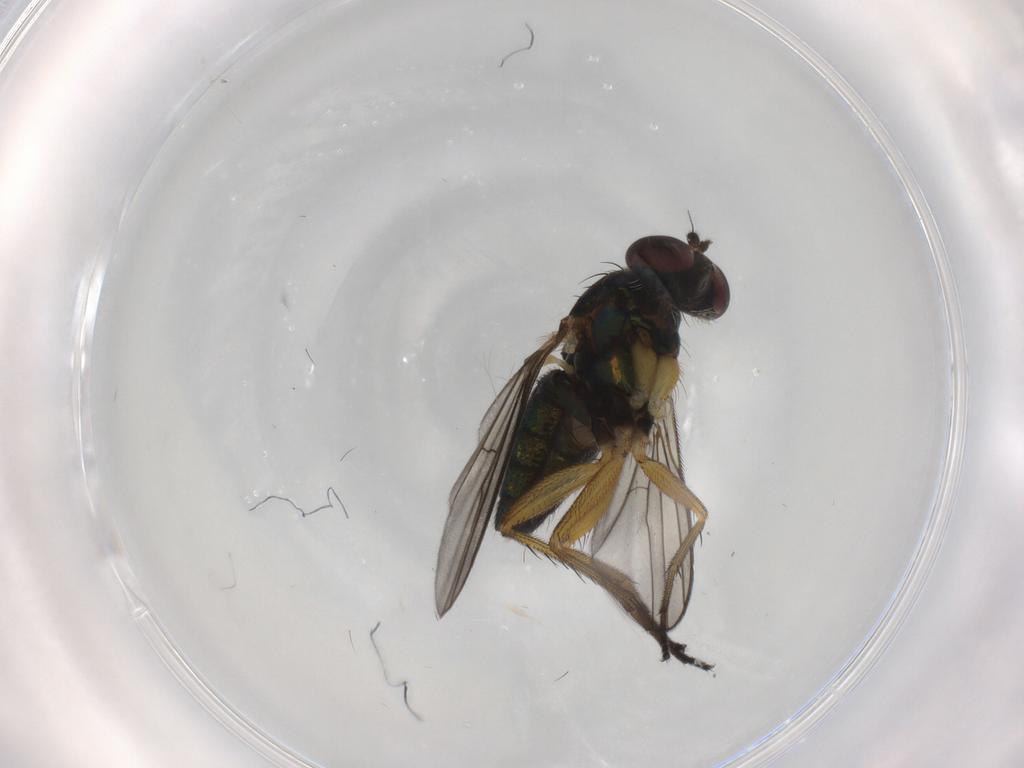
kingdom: Animalia
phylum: Arthropoda
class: Insecta
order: Diptera
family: Dolichopodidae
